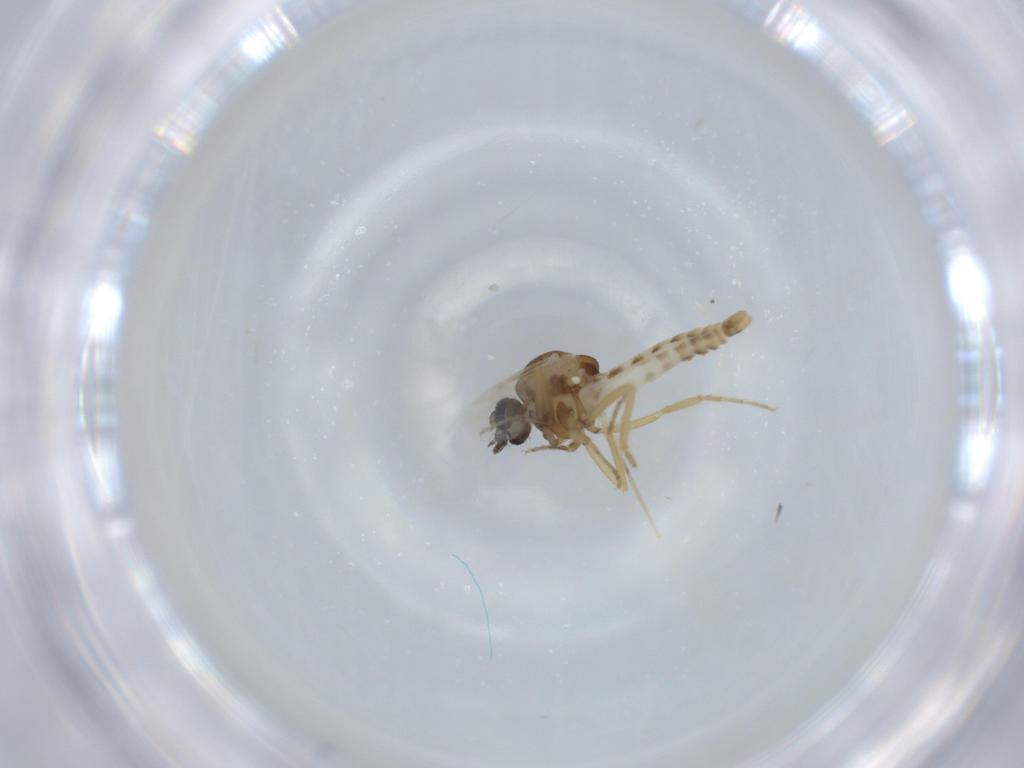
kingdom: Animalia
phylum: Arthropoda
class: Insecta
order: Diptera
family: Ceratopogonidae
